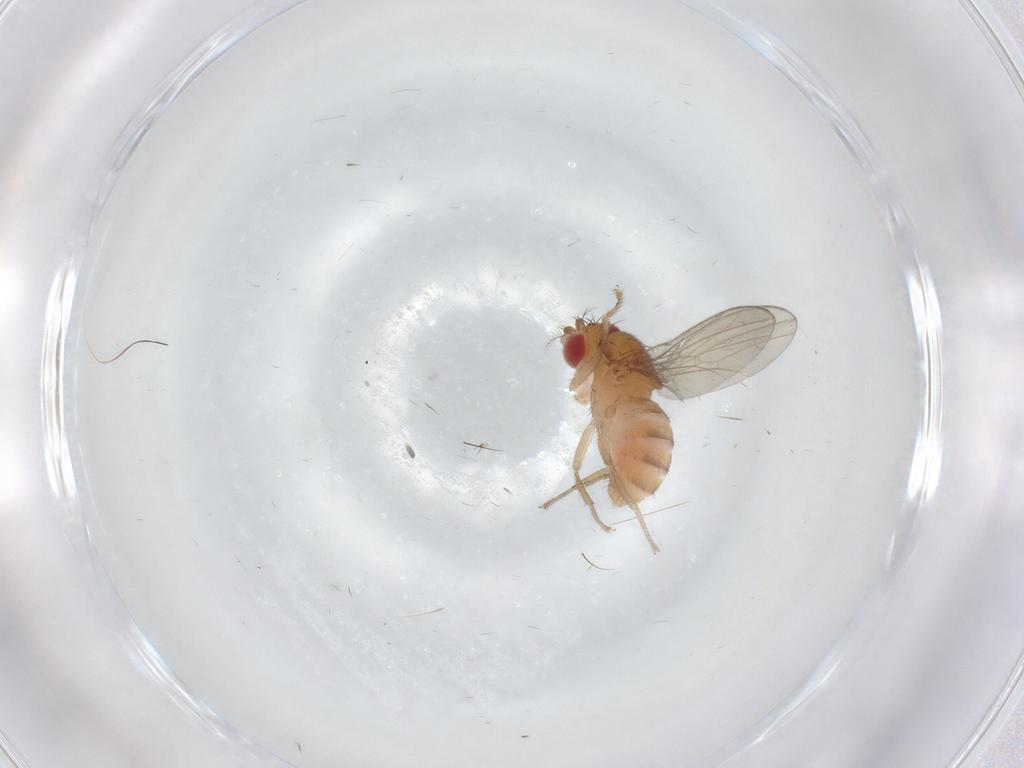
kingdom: Animalia
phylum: Arthropoda
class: Insecta
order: Diptera
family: Drosophilidae
